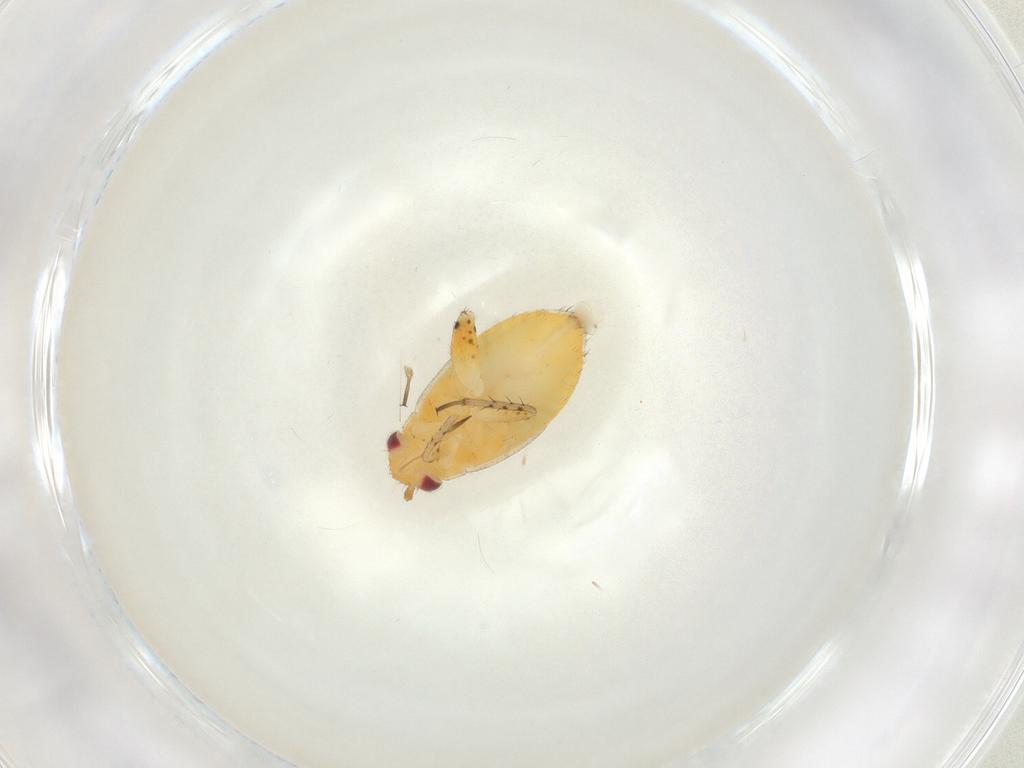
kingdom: Animalia
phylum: Arthropoda
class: Insecta
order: Hemiptera
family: Miridae
